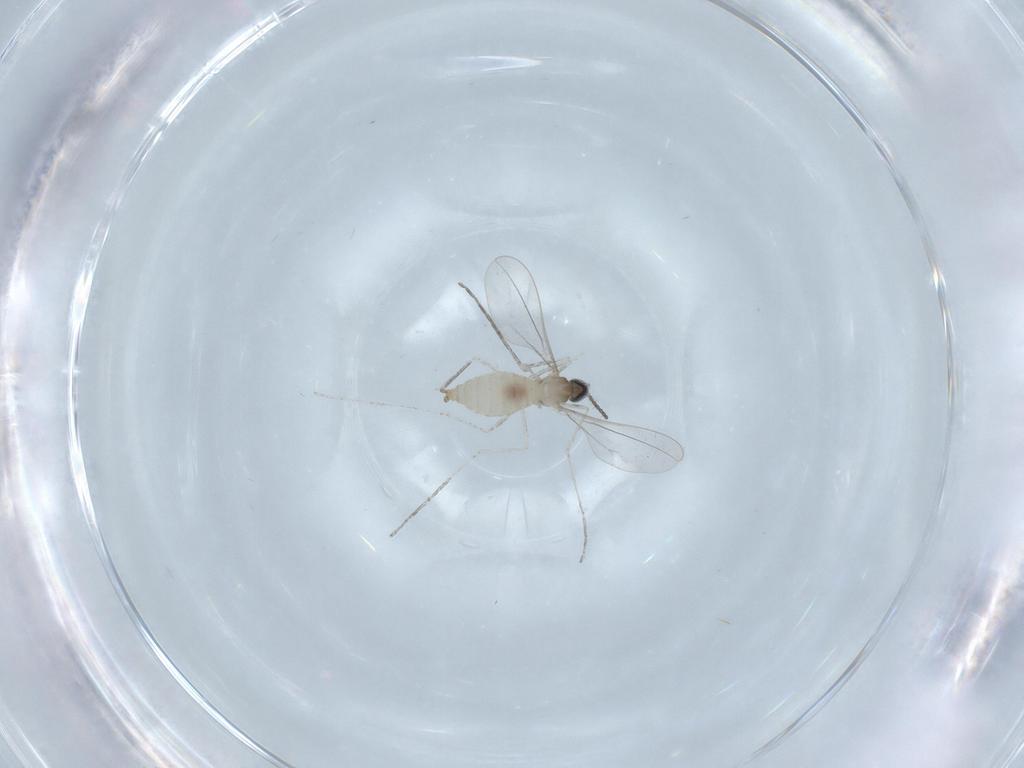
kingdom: Animalia
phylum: Arthropoda
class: Insecta
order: Diptera
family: Cecidomyiidae
